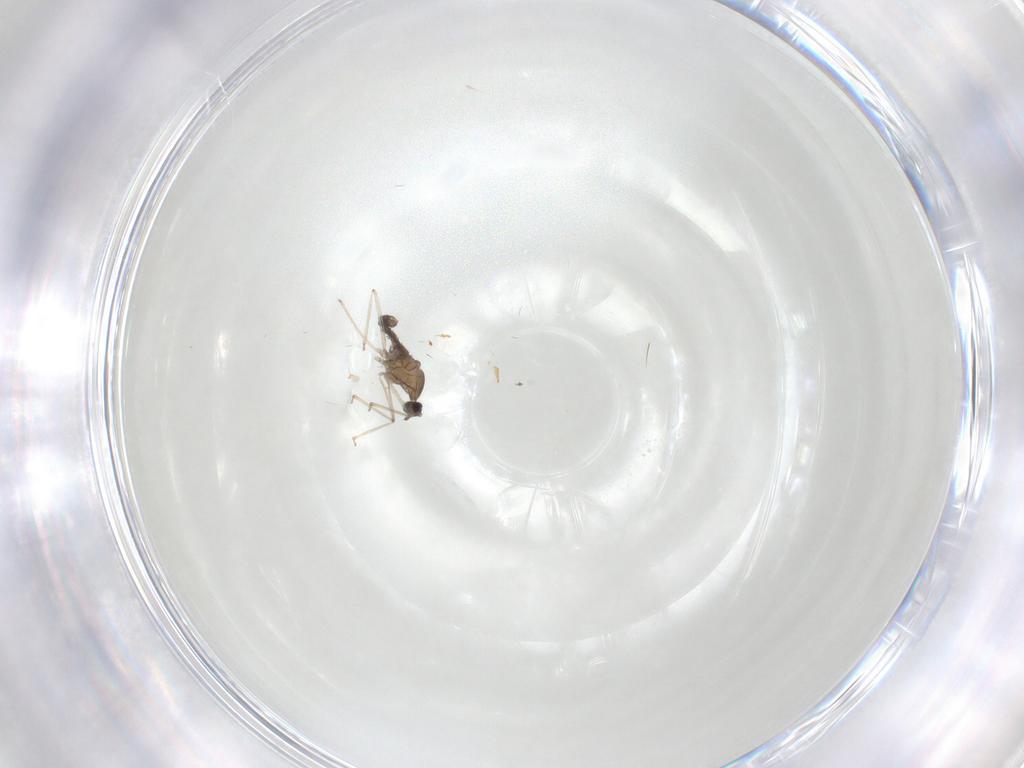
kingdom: Animalia
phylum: Arthropoda
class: Insecta
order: Diptera
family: Cecidomyiidae
